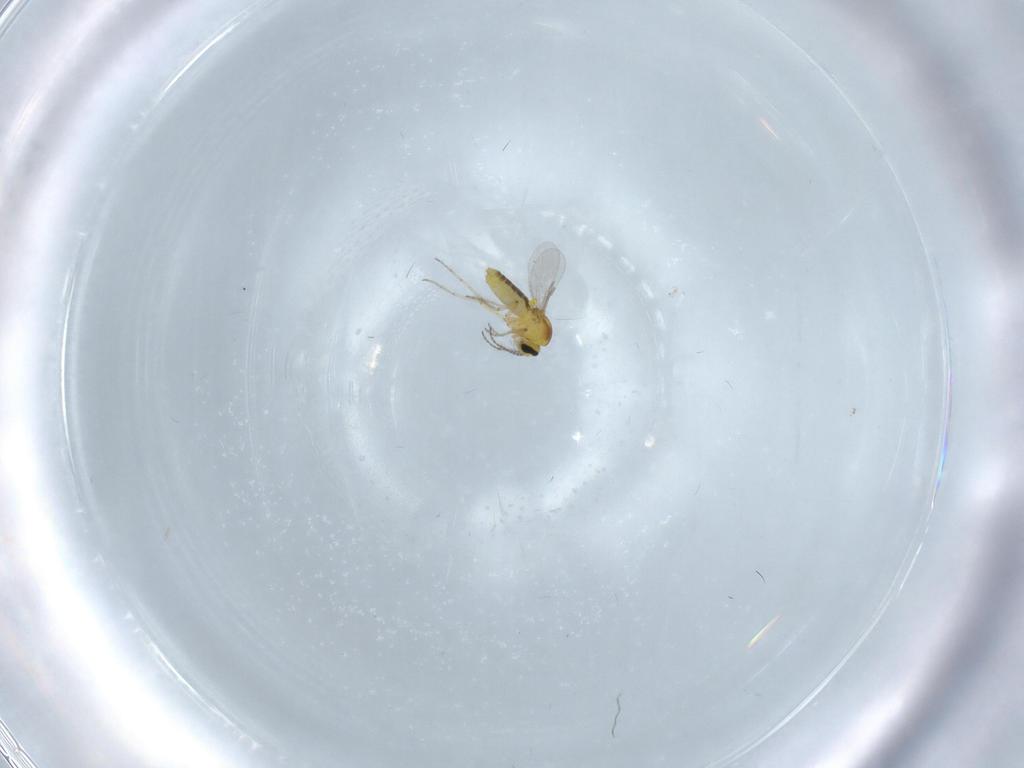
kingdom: Animalia
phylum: Arthropoda
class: Insecta
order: Diptera
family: Ceratopogonidae
